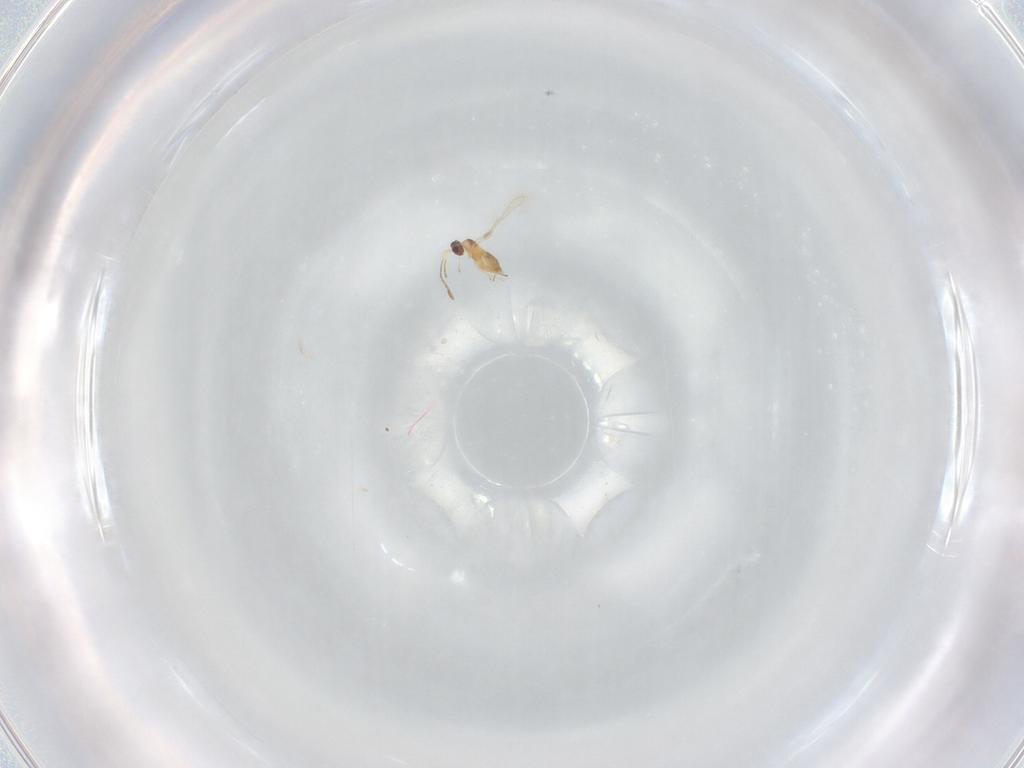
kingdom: Animalia
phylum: Arthropoda
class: Insecta
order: Hymenoptera
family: Mymaridae
